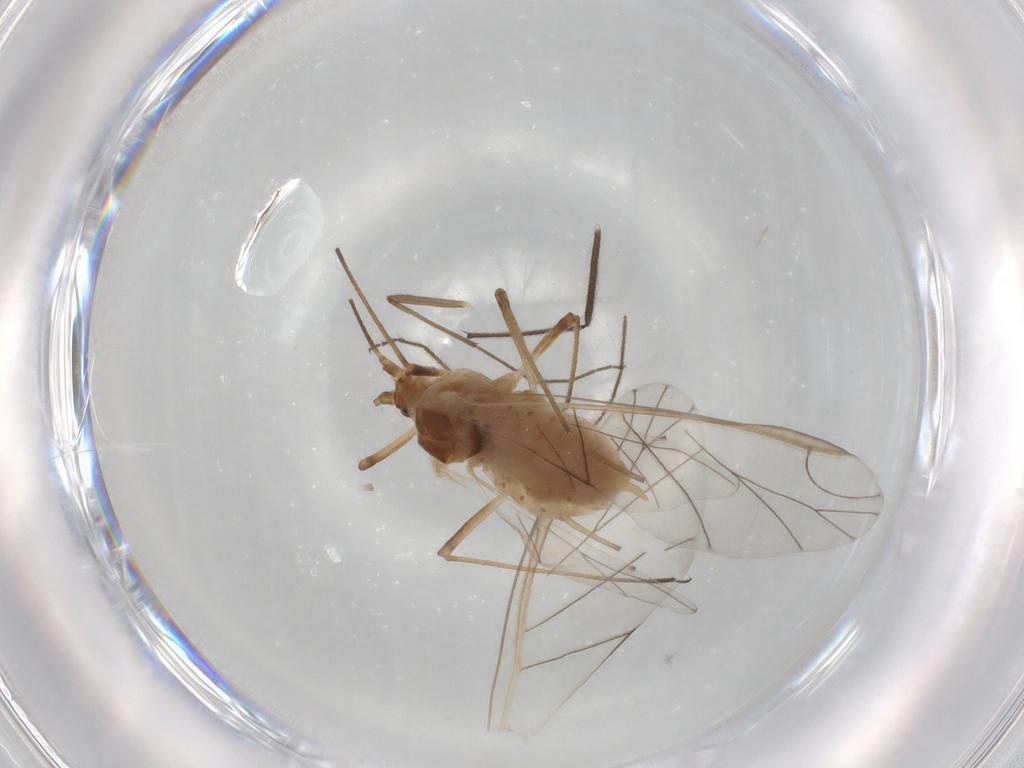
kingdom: Animalia
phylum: Arthropoda
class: Insecta
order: Hemiptera
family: Aphididae
